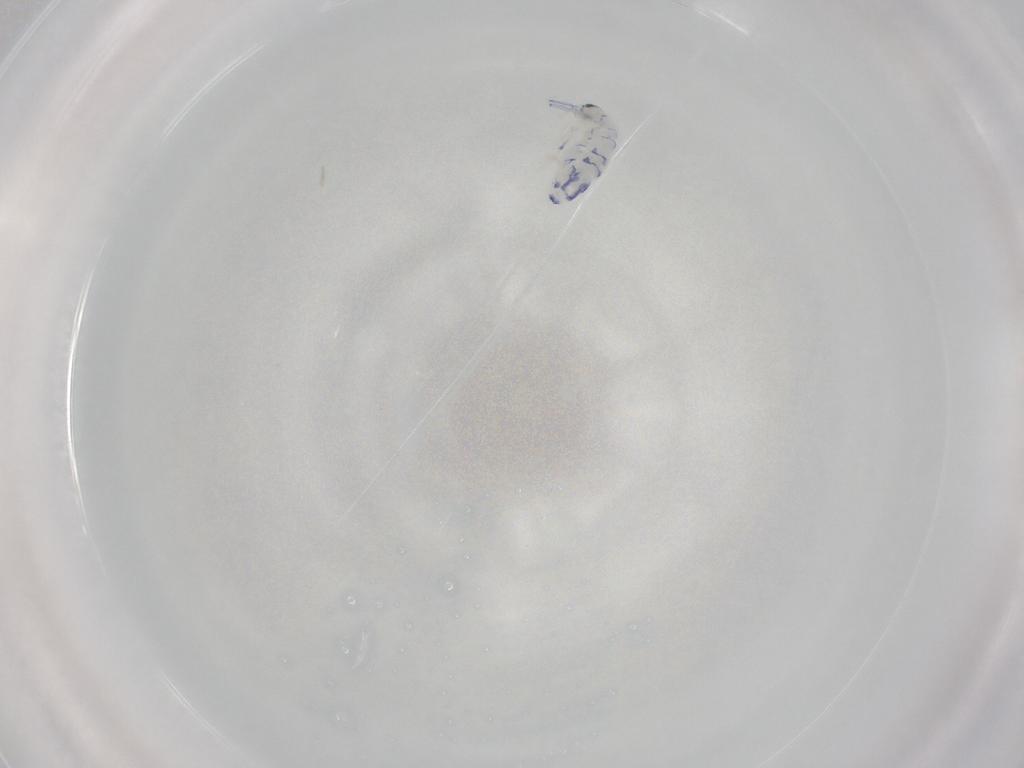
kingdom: Animalia
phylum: Arthropoda
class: Collembola
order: Entomobryomorpha
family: Entomobryidae
